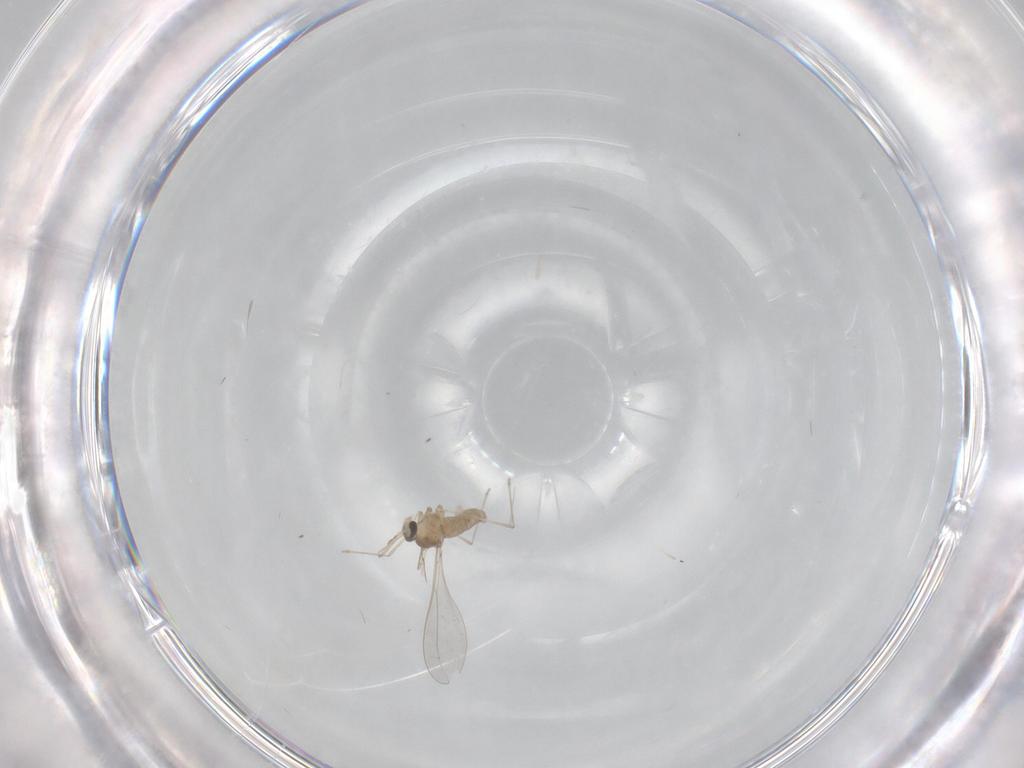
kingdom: Animalia
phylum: Arthropoda
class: Insecta
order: Diptera
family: Cecidomyiidae
